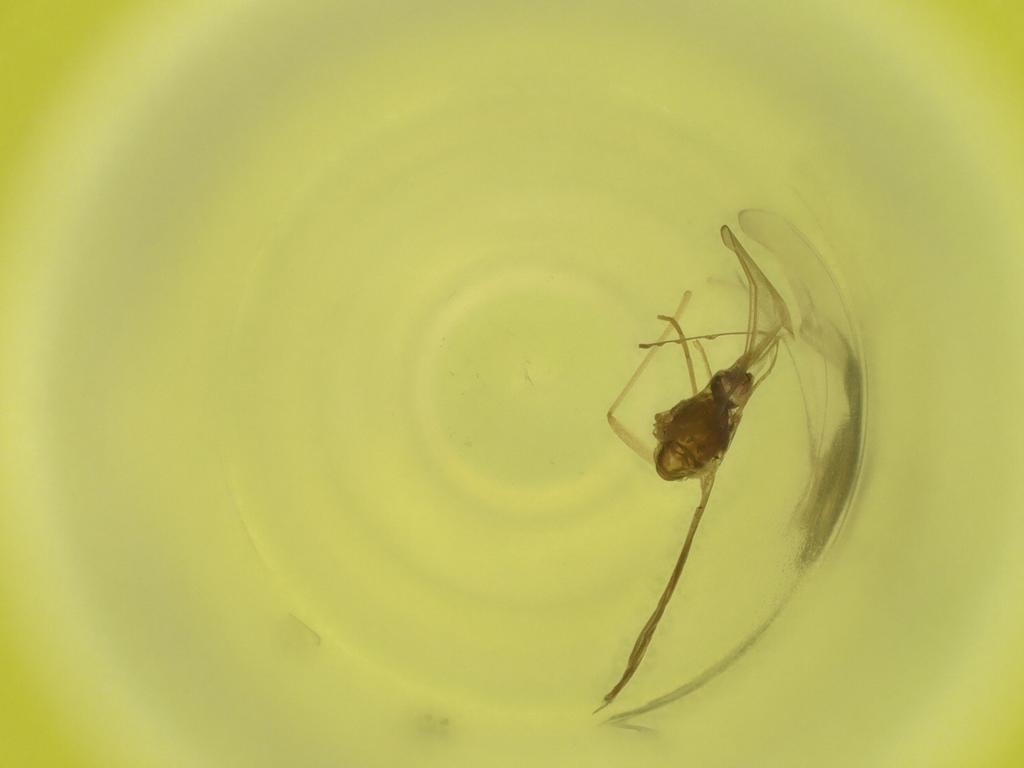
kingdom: Animalia
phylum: Arthropoda
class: Insecta
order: Diptera
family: Cecidomyiidae
